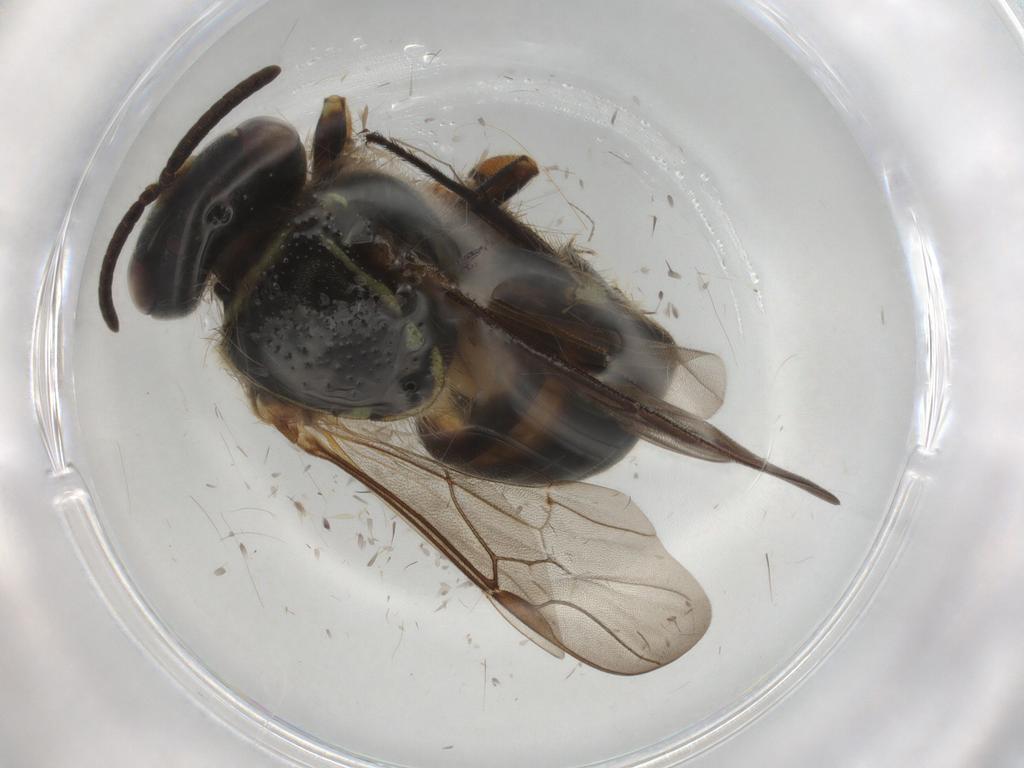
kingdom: Animalia
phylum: Arthropoda
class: Insecta
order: Hymenoptera
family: Apidae
